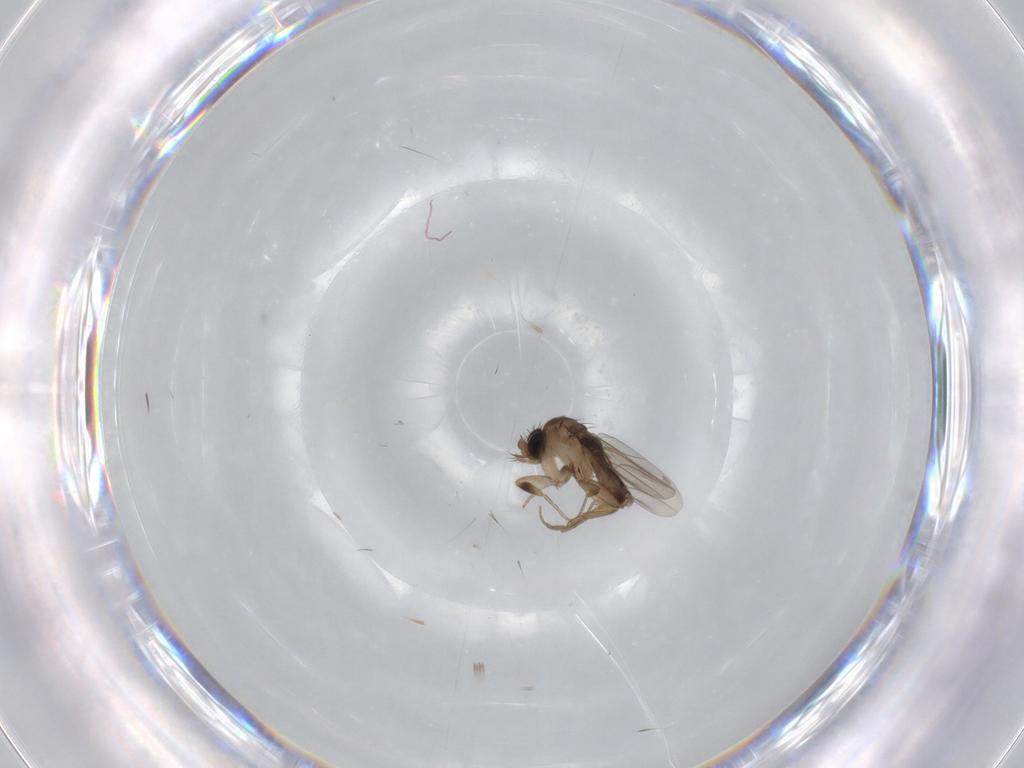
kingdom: Animalia
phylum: Arthropoda
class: Insecta
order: Diptera
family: Phoridae
